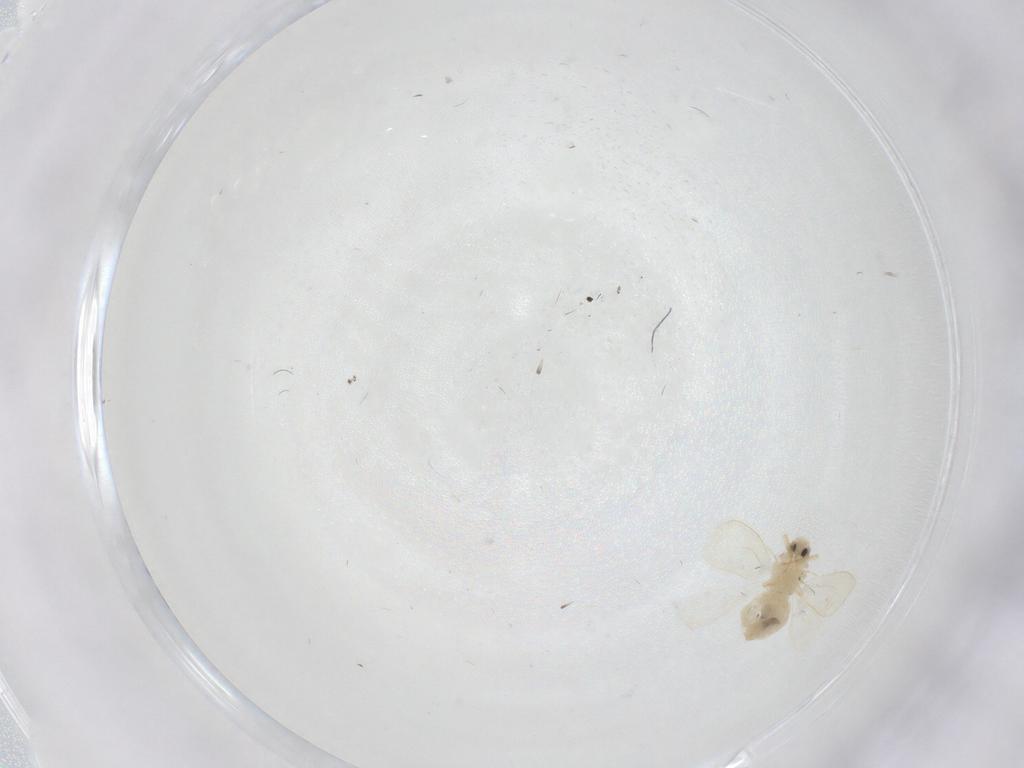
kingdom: Animalia
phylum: Arthropoda
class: Insecta
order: Hemiptera
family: Aleyrodidae
